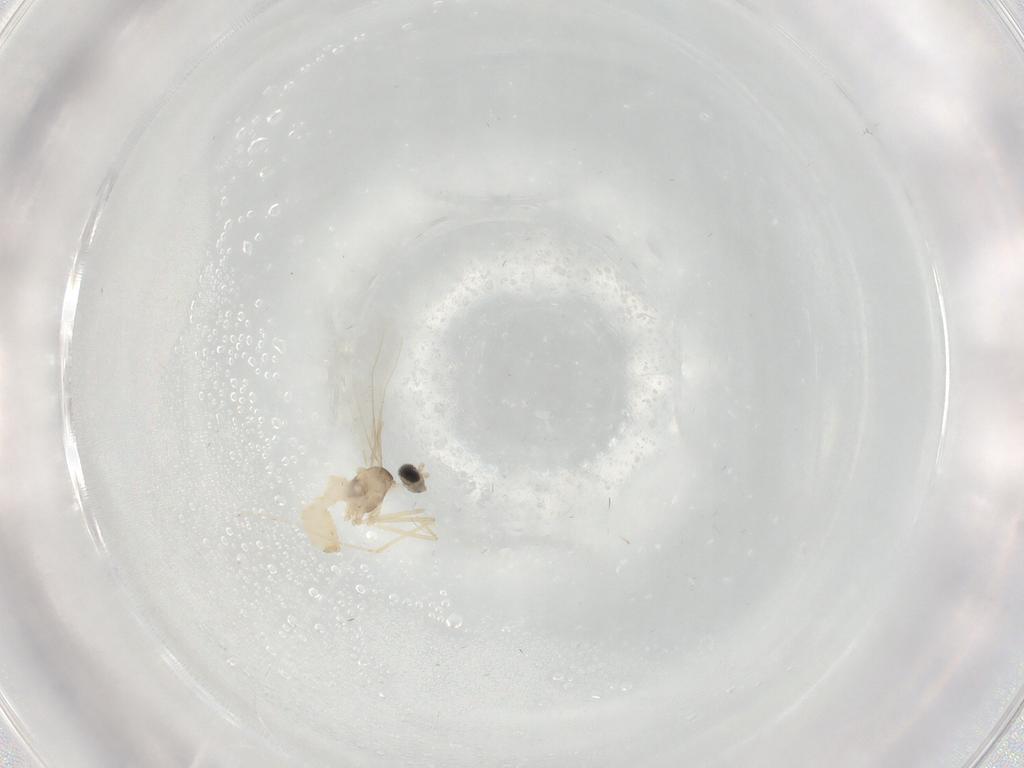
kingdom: Animalia
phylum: Arthropoda
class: Insecta
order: Diptera
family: Cecidomyiidae
